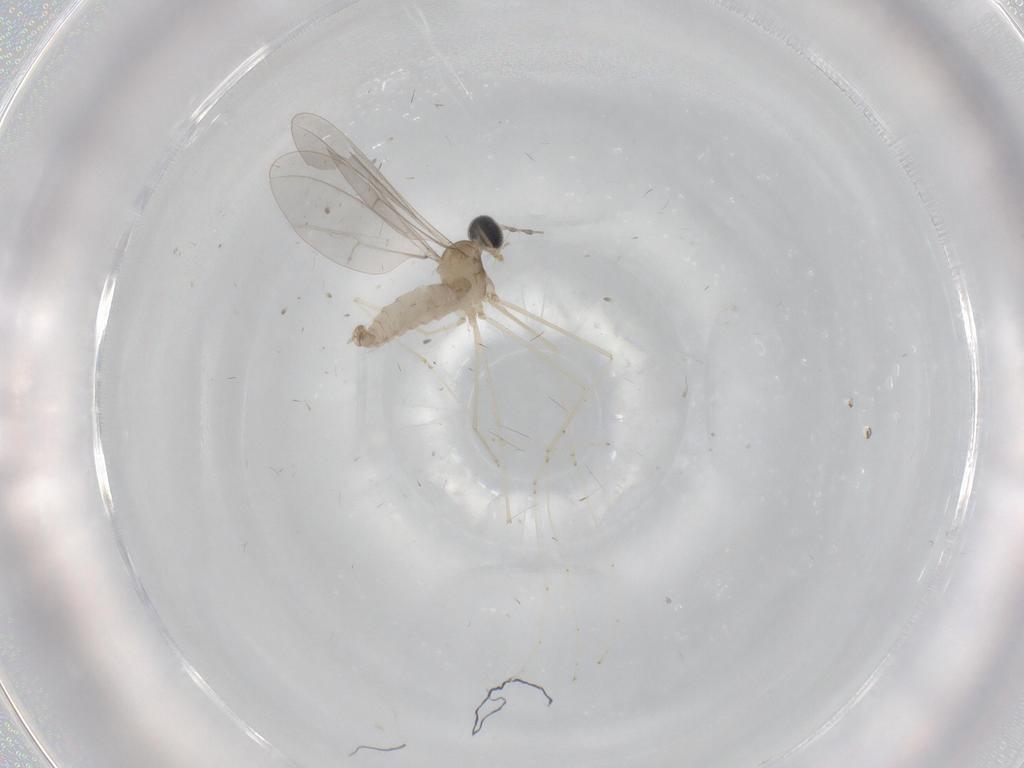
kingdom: Animalia
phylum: Arthropoda
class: Insecta
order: Diptera
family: Cecidomyiidae
